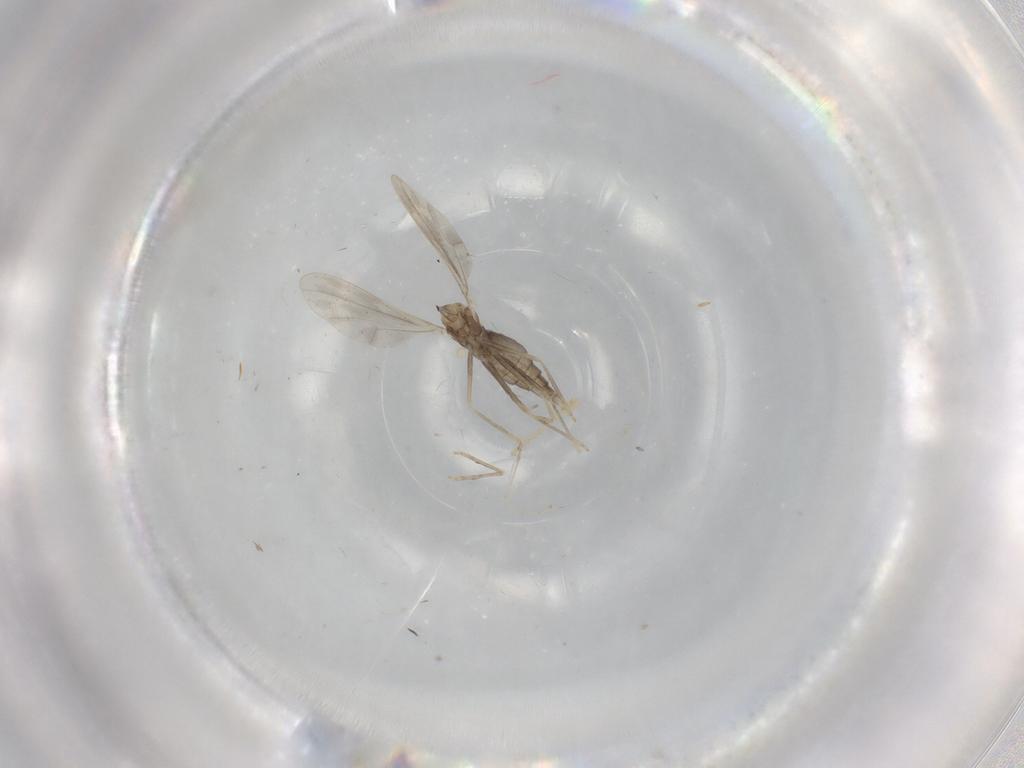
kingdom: Animalia
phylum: Arthropoda
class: Insecta
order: Diptera
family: Cecidomyiidae
